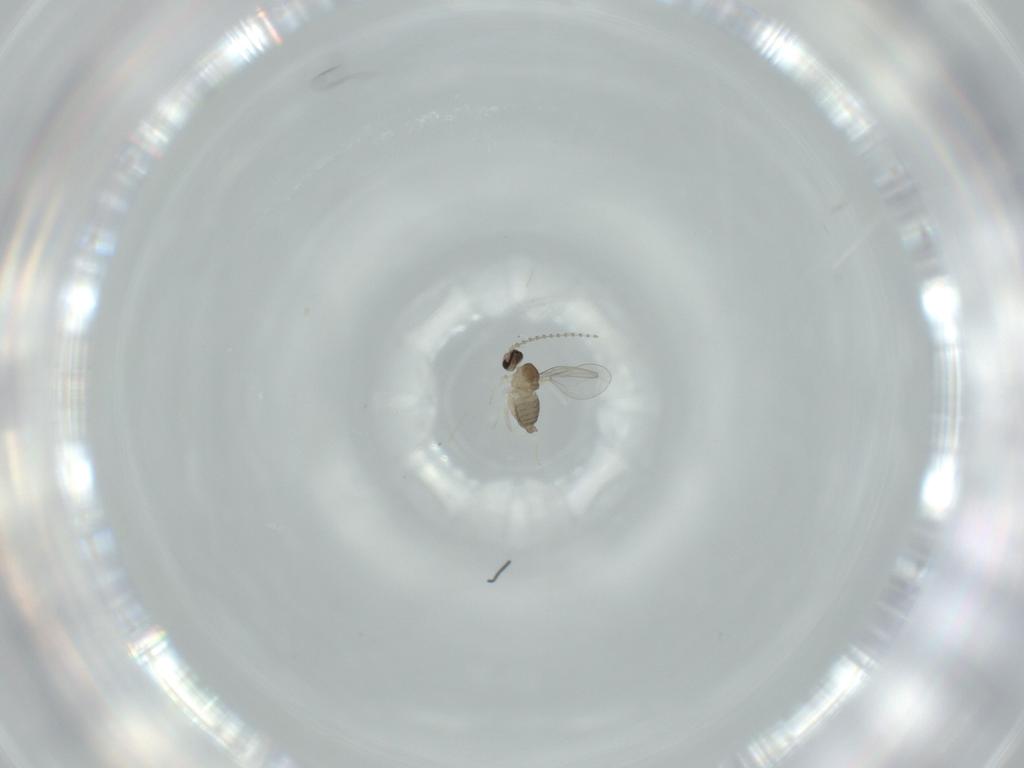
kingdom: Animalia
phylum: Arthropoda
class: Insecta
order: Diptera
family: Cecidomyiidae
